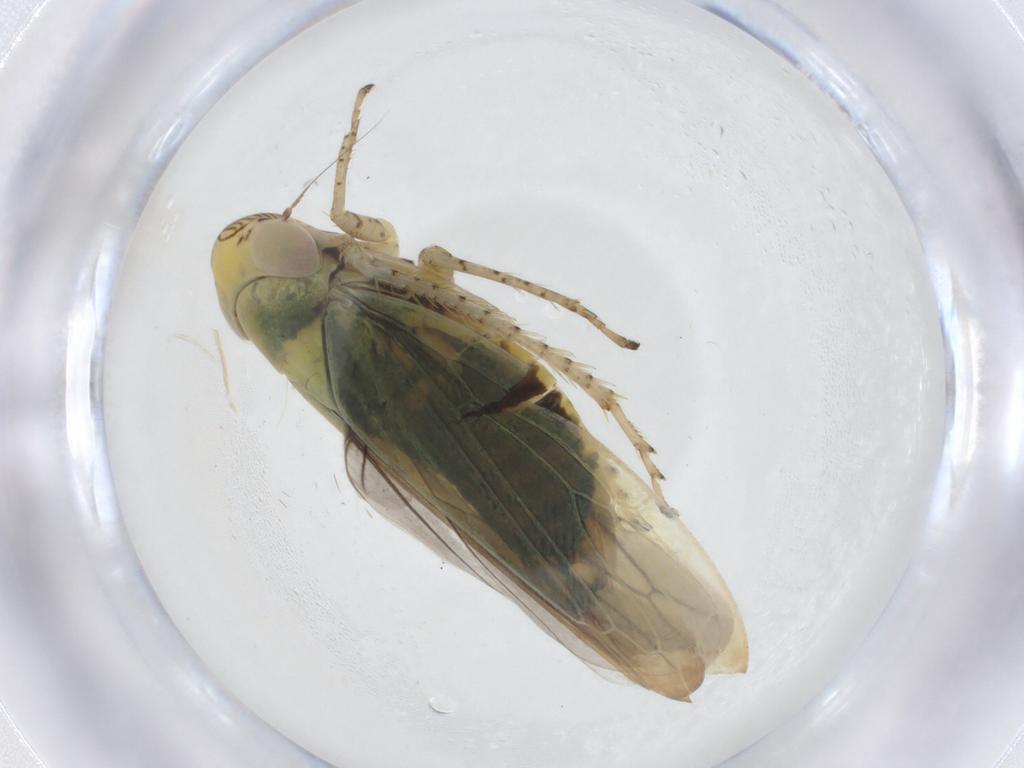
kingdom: Animalia
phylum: Arthropoda
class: Insecta
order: Hemiptera
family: Cicadellidae
